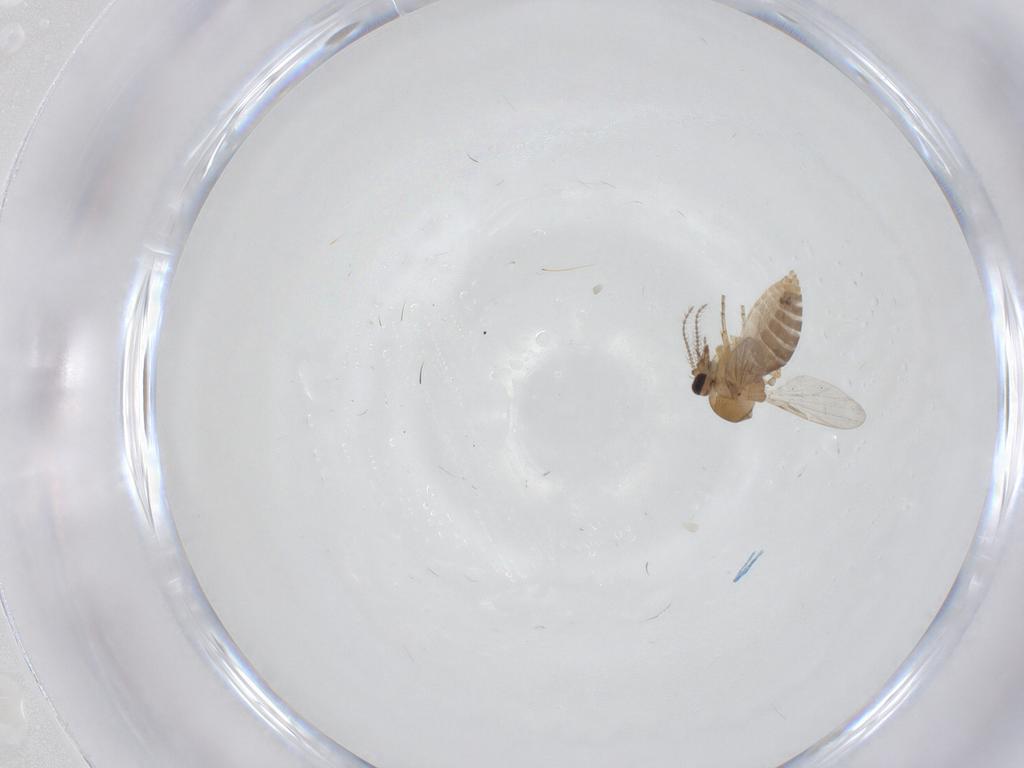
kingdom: Animalia
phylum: Arthropoda
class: Insecta
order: Diptera
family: Ceratopogonidae
